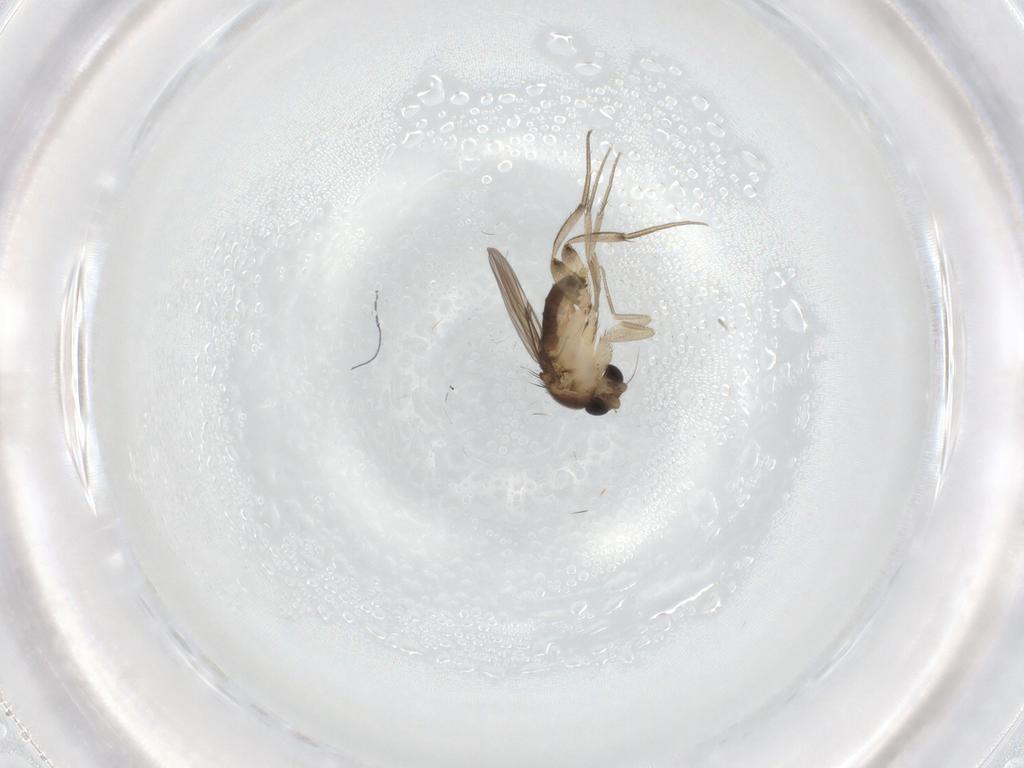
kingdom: Animalia
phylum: Arthropoda
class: Insecta
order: Diptera
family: Phoridae
